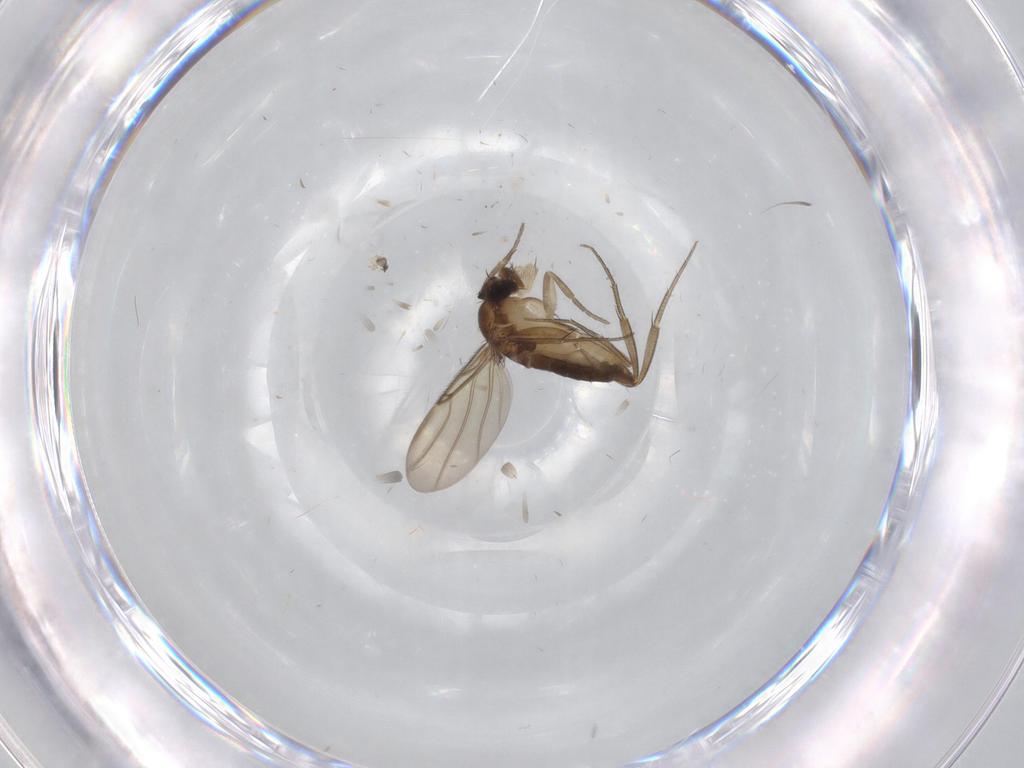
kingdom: Animalia
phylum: Arthropoda
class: Insecta
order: Diptera
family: Phoridae
